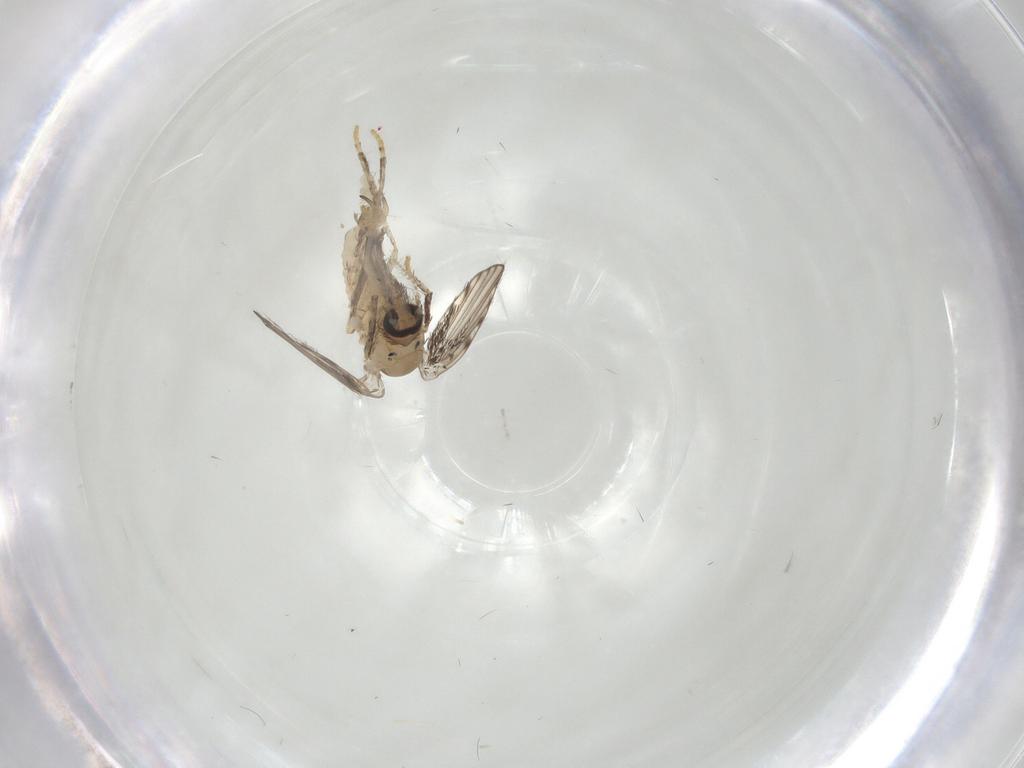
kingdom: Animalia
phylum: Arthropoda
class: Insecta
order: Diptera
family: Psychodidae
